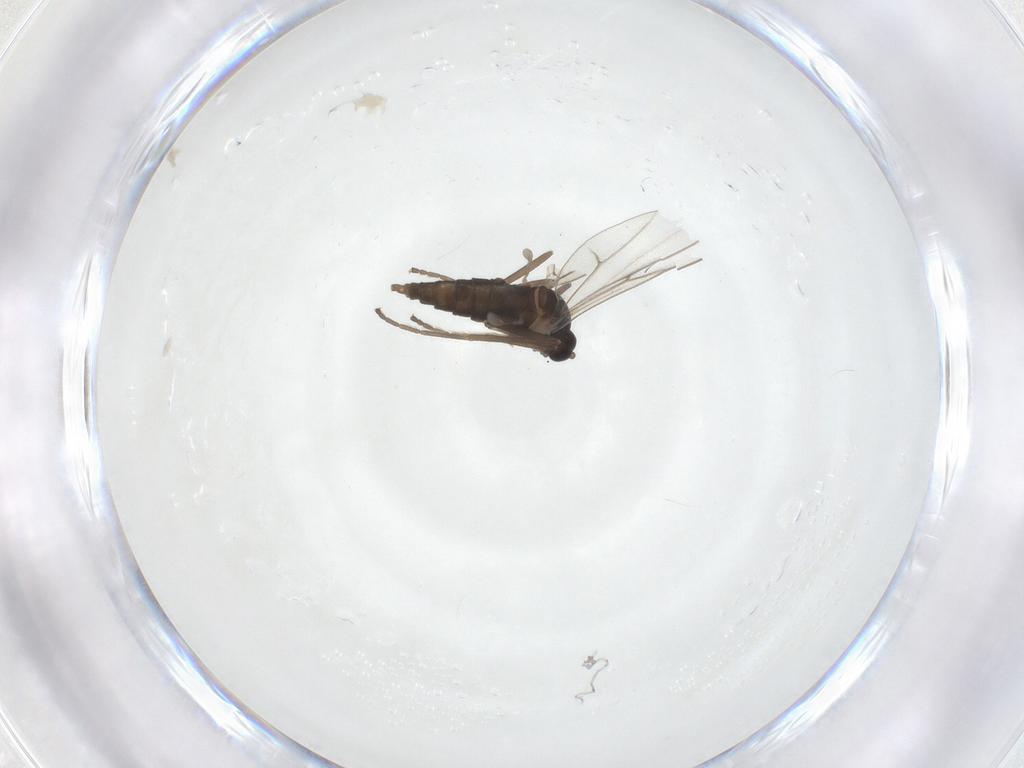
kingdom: Animalia
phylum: Arthropoda
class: Insecta
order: Diptera
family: Cecidomyiidae
